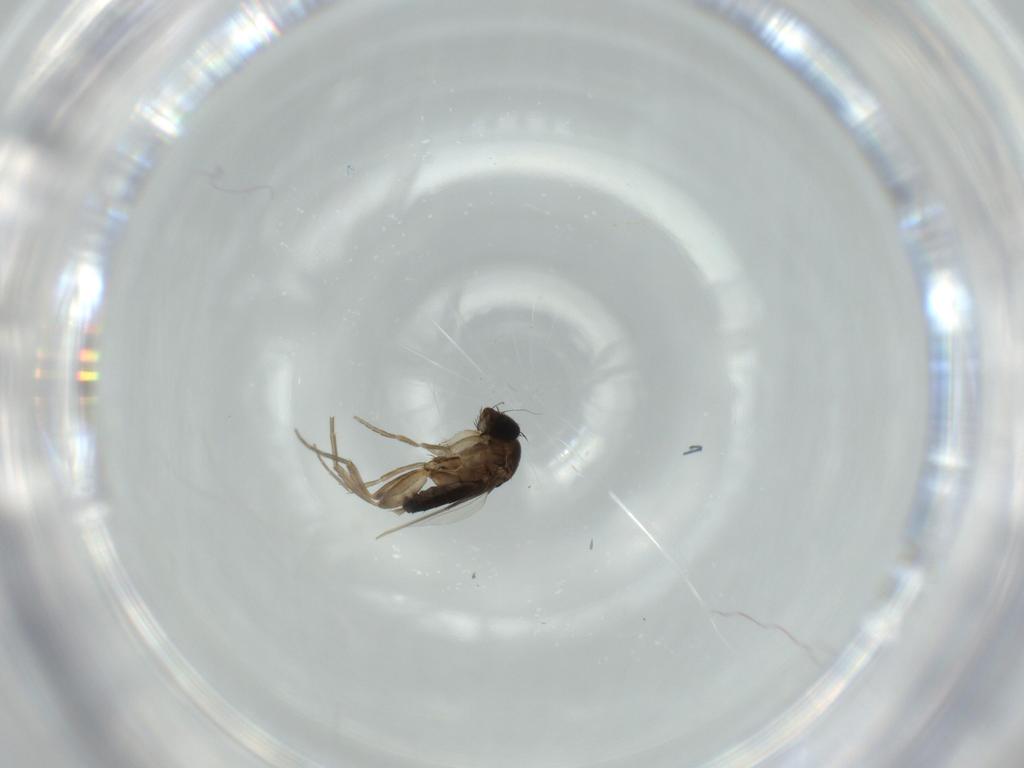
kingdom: Animalia
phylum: Arthropoda
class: Insecta
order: Diptera
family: Phoridae
